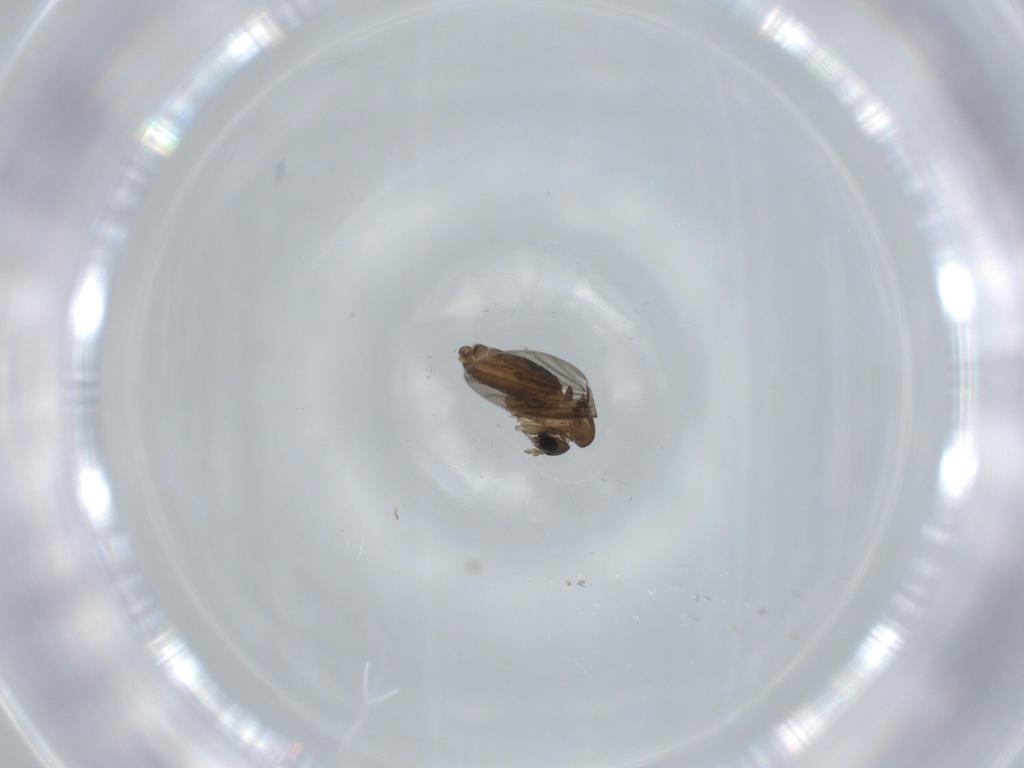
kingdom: Animalia
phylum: Arthropoda
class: Insecta
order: Diptera
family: Psychodidae
